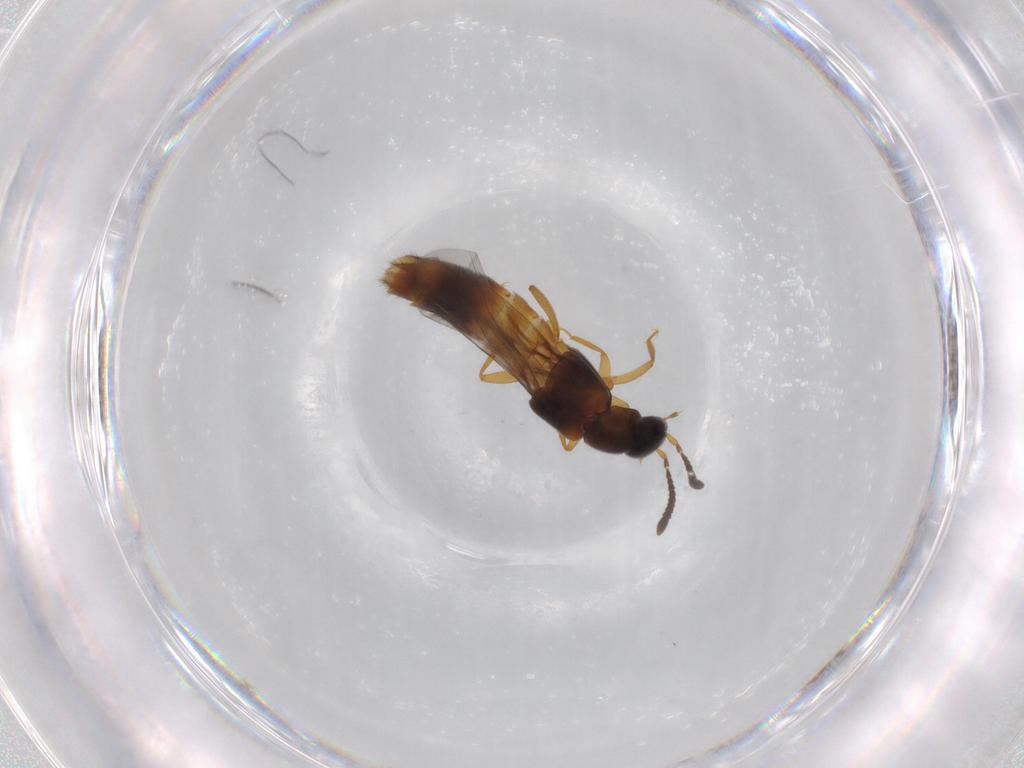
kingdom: Animalia
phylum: Arthropoda
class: Insecta
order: Coleoptera
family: Staphylinidae
